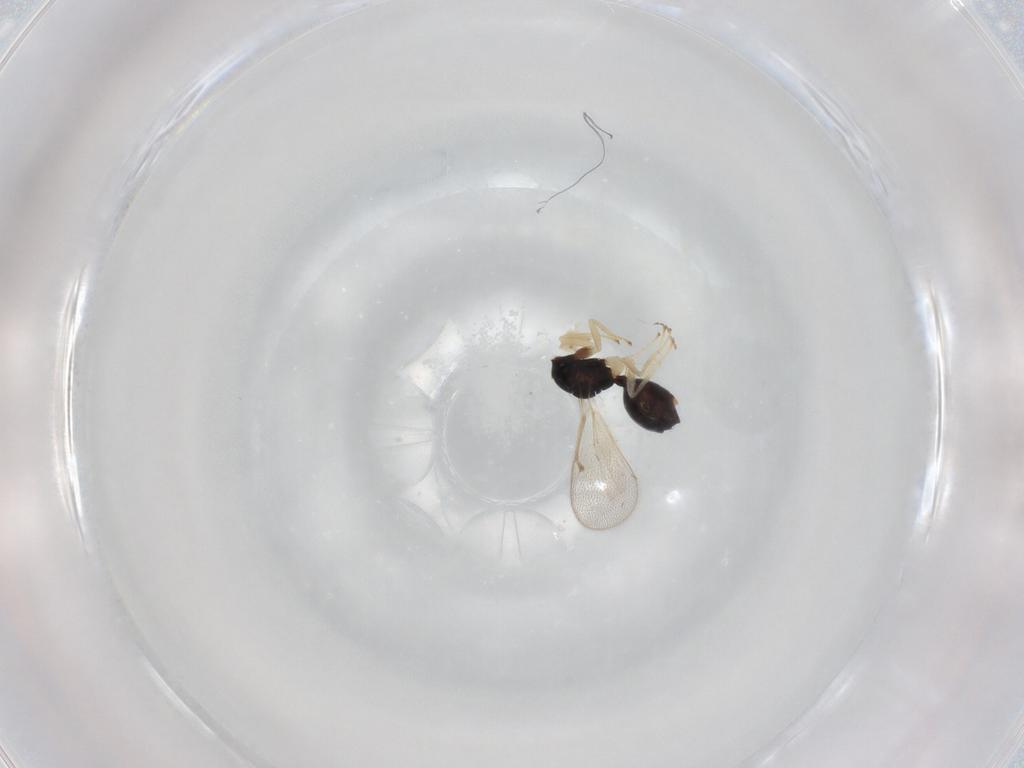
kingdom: Animalia
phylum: Arthropoda
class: Insecta
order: Hymenoptera
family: Eulophidae
